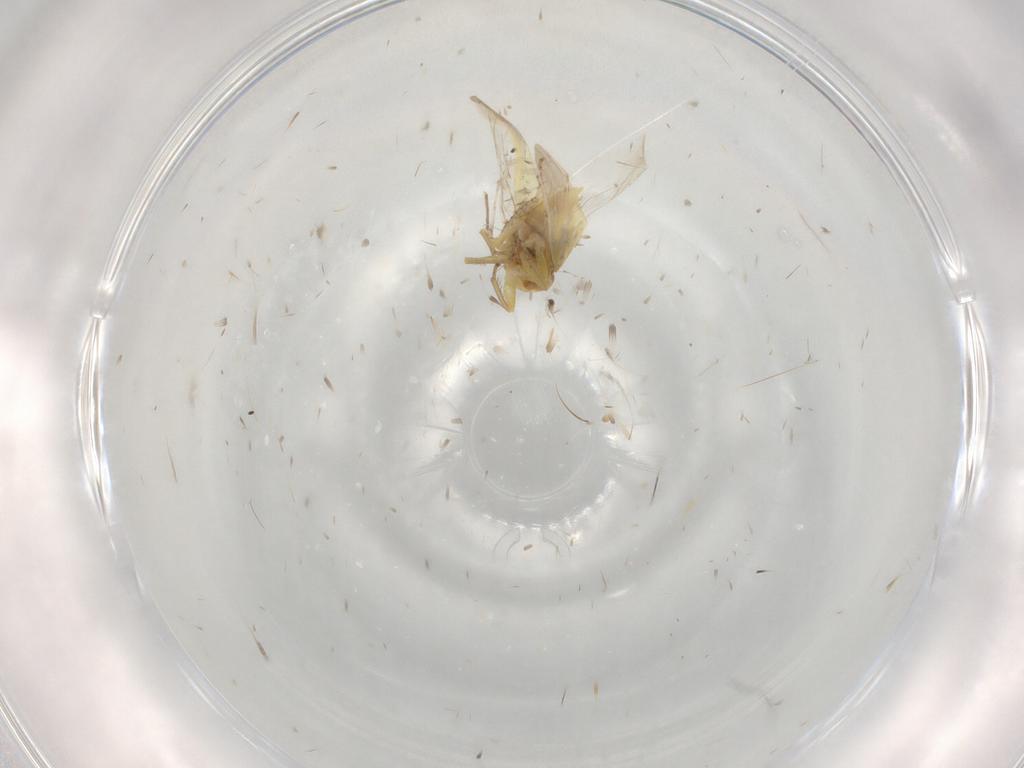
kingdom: Animalia
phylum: Arthropoda
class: Insecta
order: Hemiptera
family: Cicadellidae
